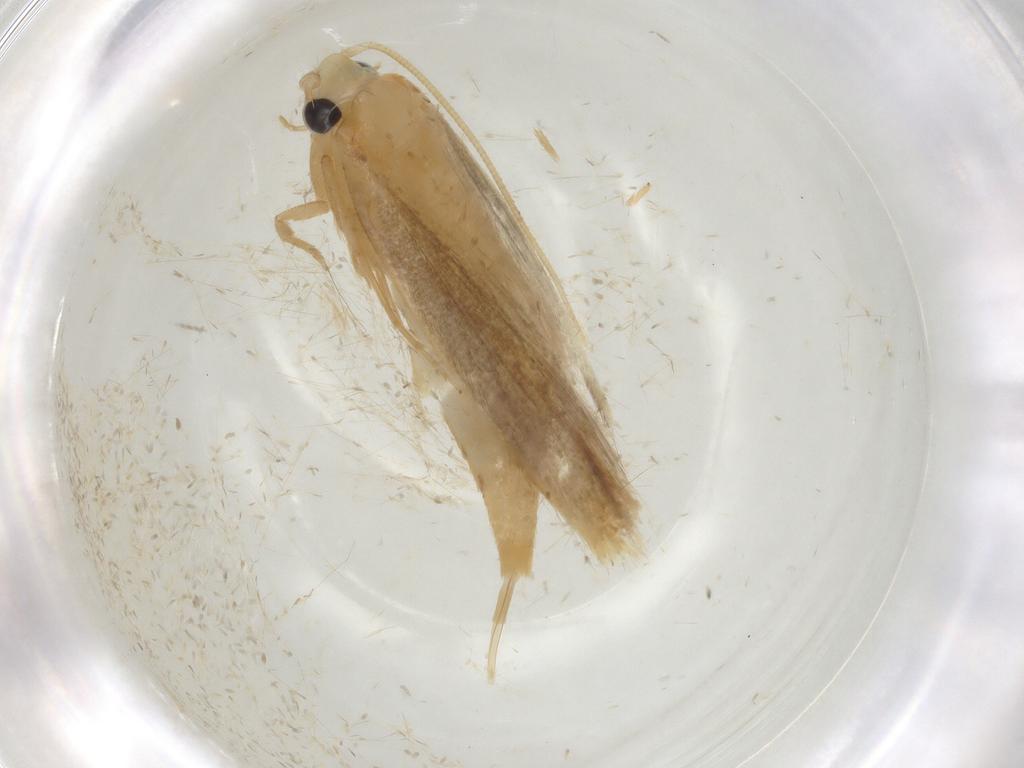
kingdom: Animalia
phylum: Arthropoda
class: Insecta
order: Lepidoptera
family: Tineidae
